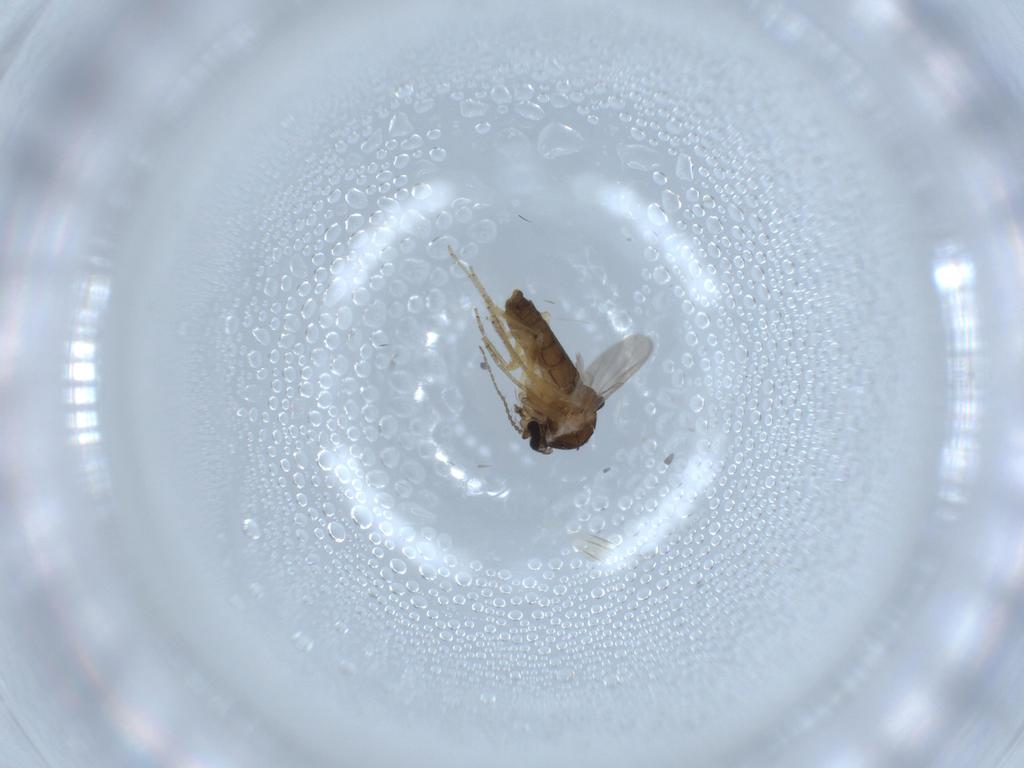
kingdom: Animalia
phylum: Arthropoda
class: Insecta
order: Diptera
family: Ceratopogonidae
